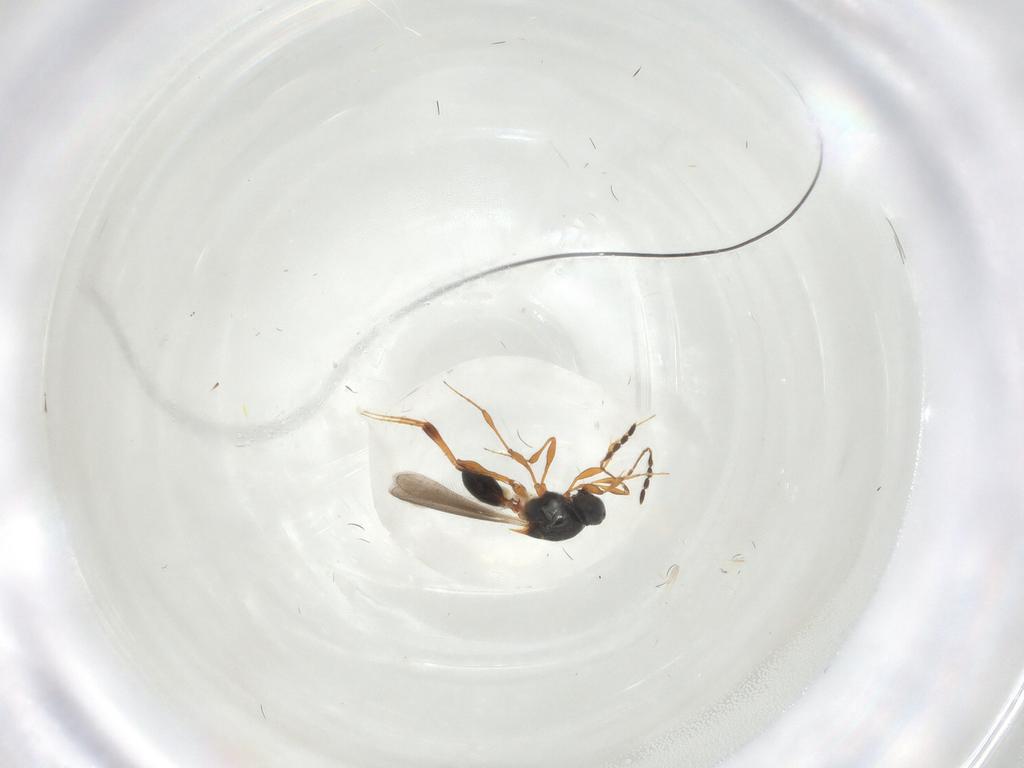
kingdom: Animalia
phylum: Arthropoda
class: Insecta
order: Hymenoptera
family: Platygastridae
